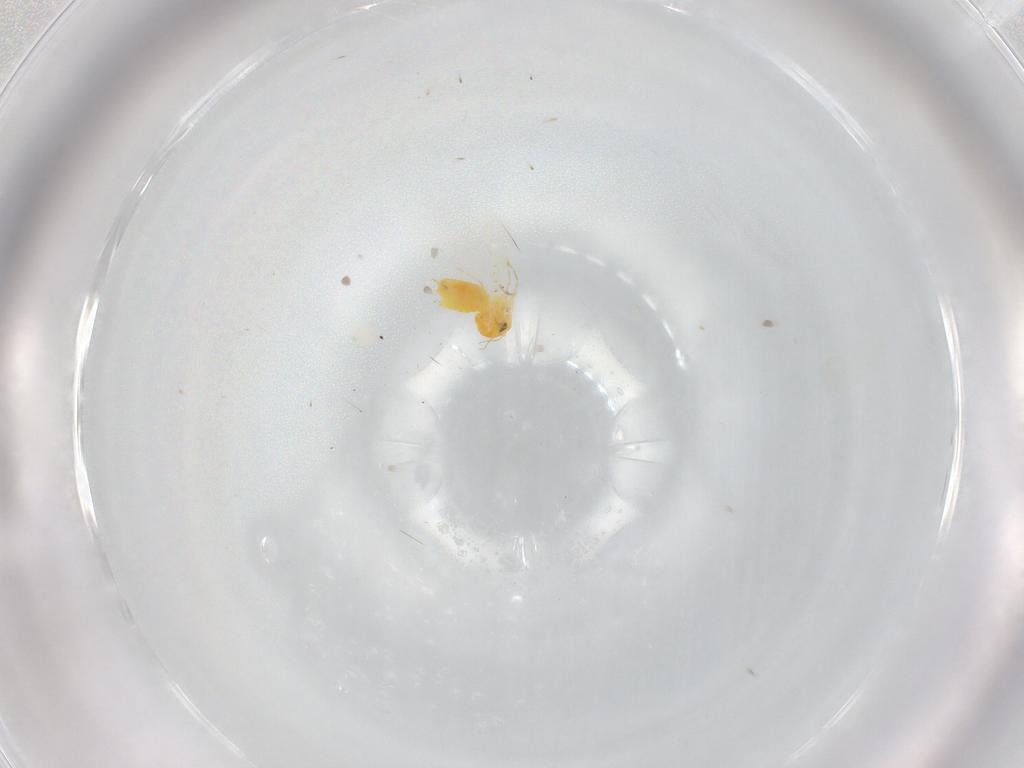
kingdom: Animalia
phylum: Arthropoda
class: Insecta
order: Hemiptera
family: Aleyrodidae
